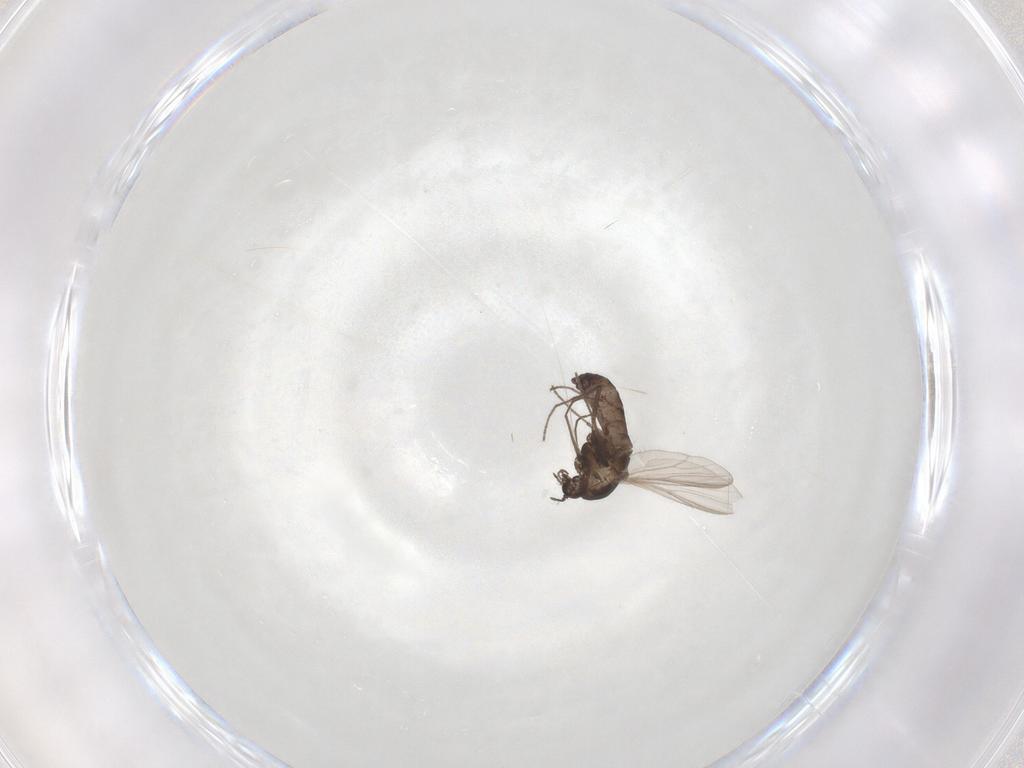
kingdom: Animalia
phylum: Arthropoda
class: Insecta
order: Diptera
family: Chironomidae
